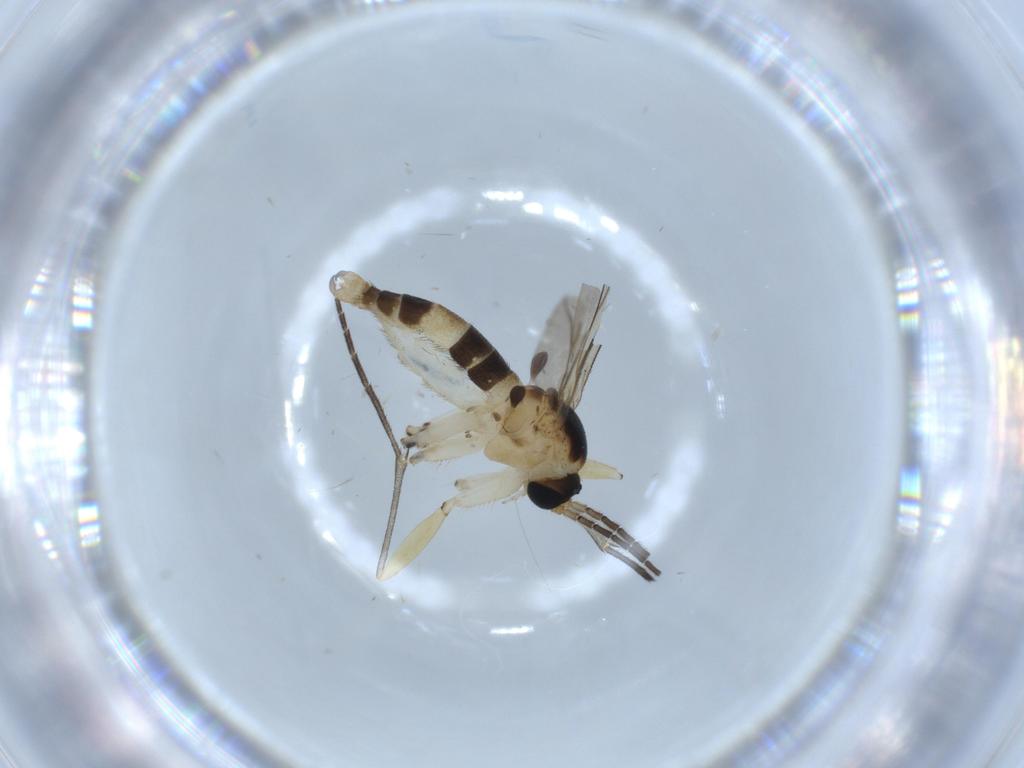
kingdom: Animalia
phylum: Arthropoda
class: Insecta
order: Diptera
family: Sciaridae
